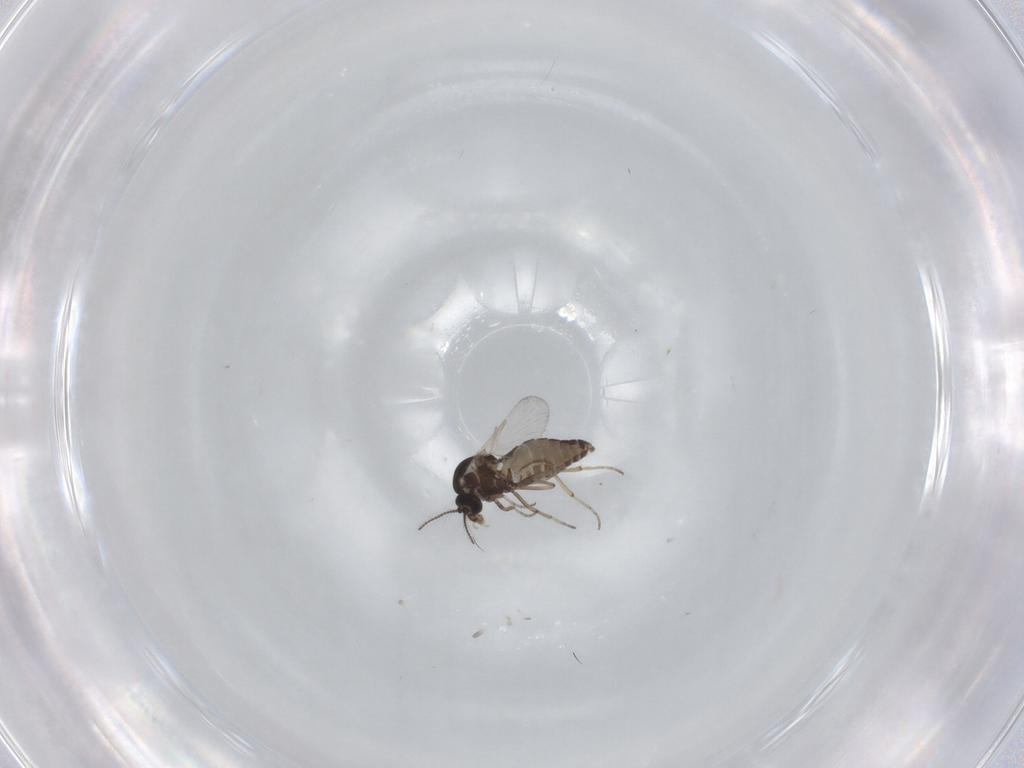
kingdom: Animalia
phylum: Arthropoda
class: Insecta
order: Diptera
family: Ceratopogonidae
